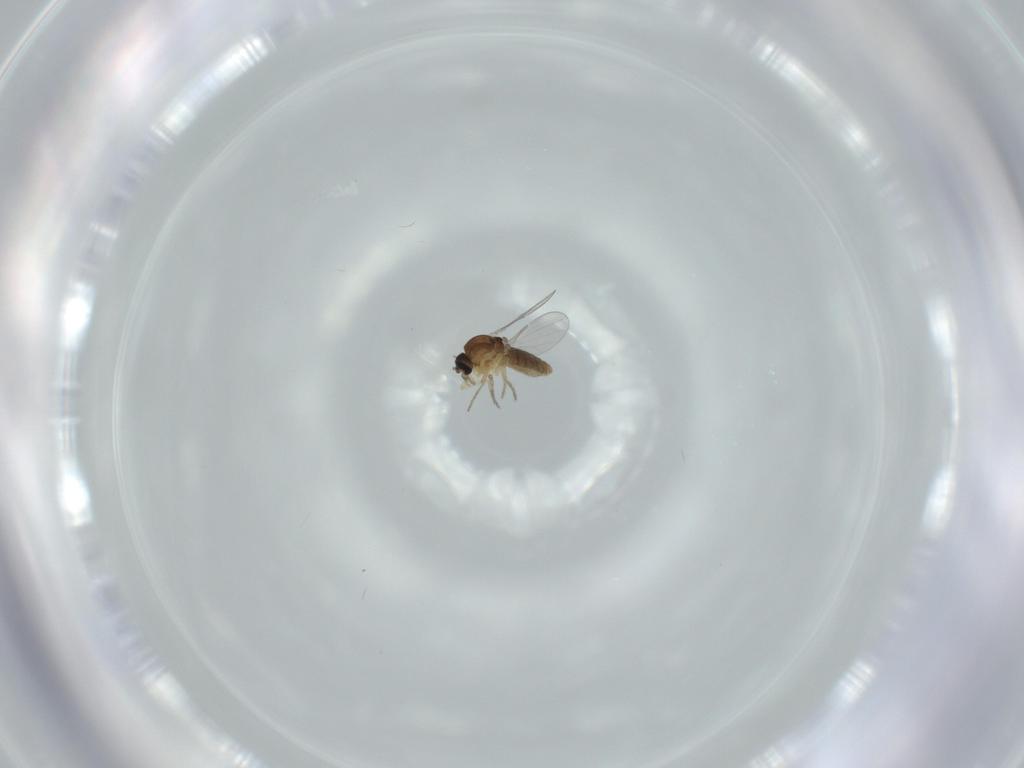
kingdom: Animalia
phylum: Arthropoda
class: Insecta
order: Diptera
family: Ceratopogonidae
